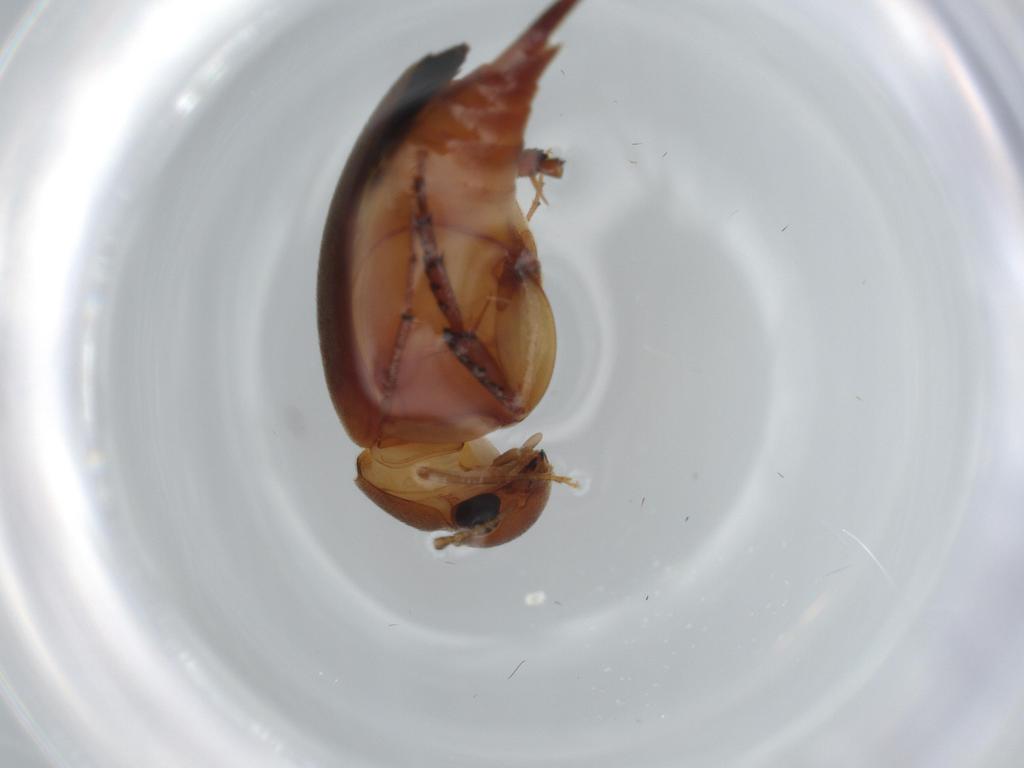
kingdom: Animalia
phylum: Arthropoda
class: Insecta
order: Coleoptera
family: Mordellidae
